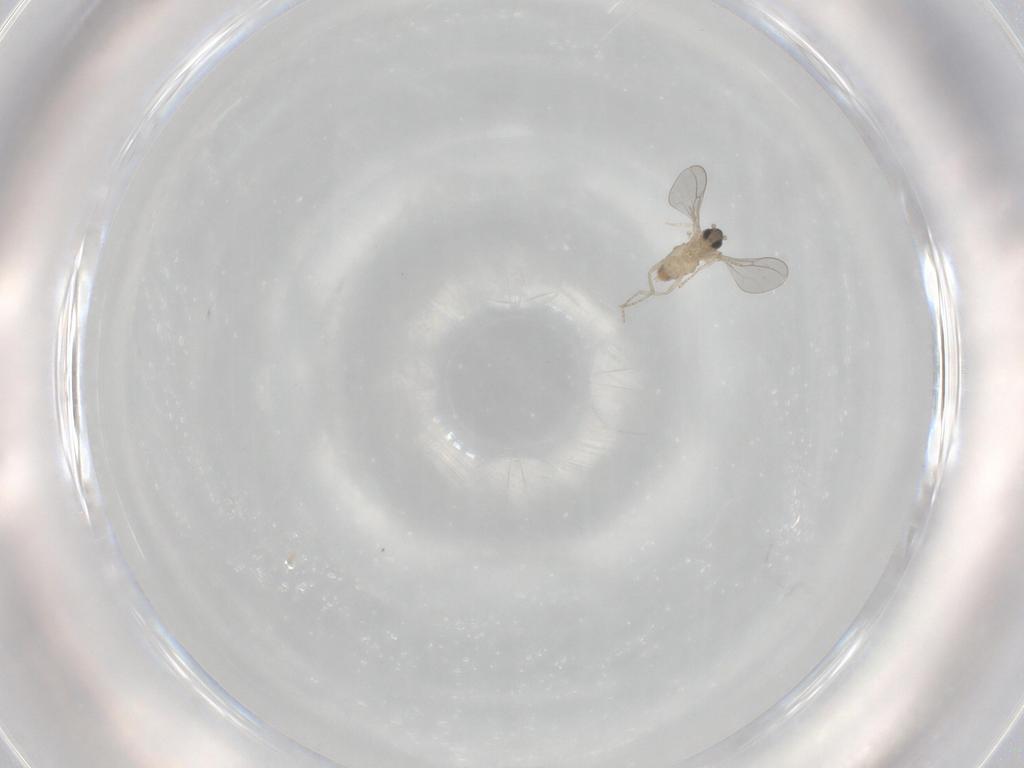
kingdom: Animalia
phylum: Arthropoda
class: Insecta
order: Diptera
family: Cecidomyiidae
